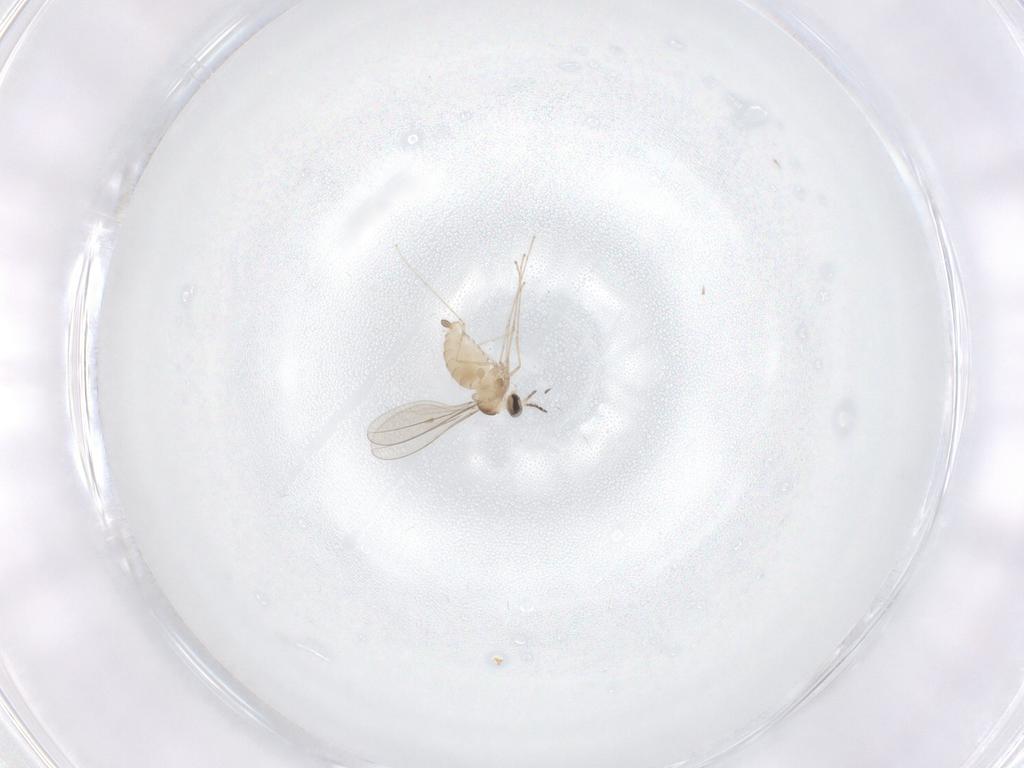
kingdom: Animalia
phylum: Arthropoda
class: Insecta
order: Diptera
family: Cecidomyiidae
